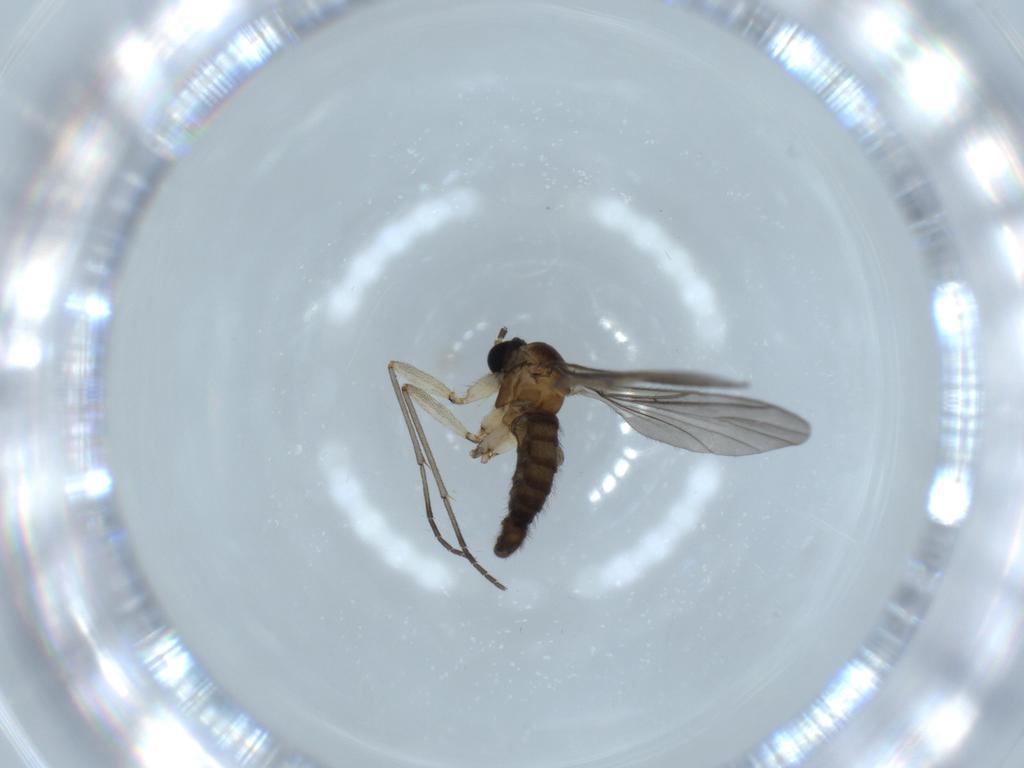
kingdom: Animalia
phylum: Arthropoda
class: Insecta
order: Diptera
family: Sciaridae
